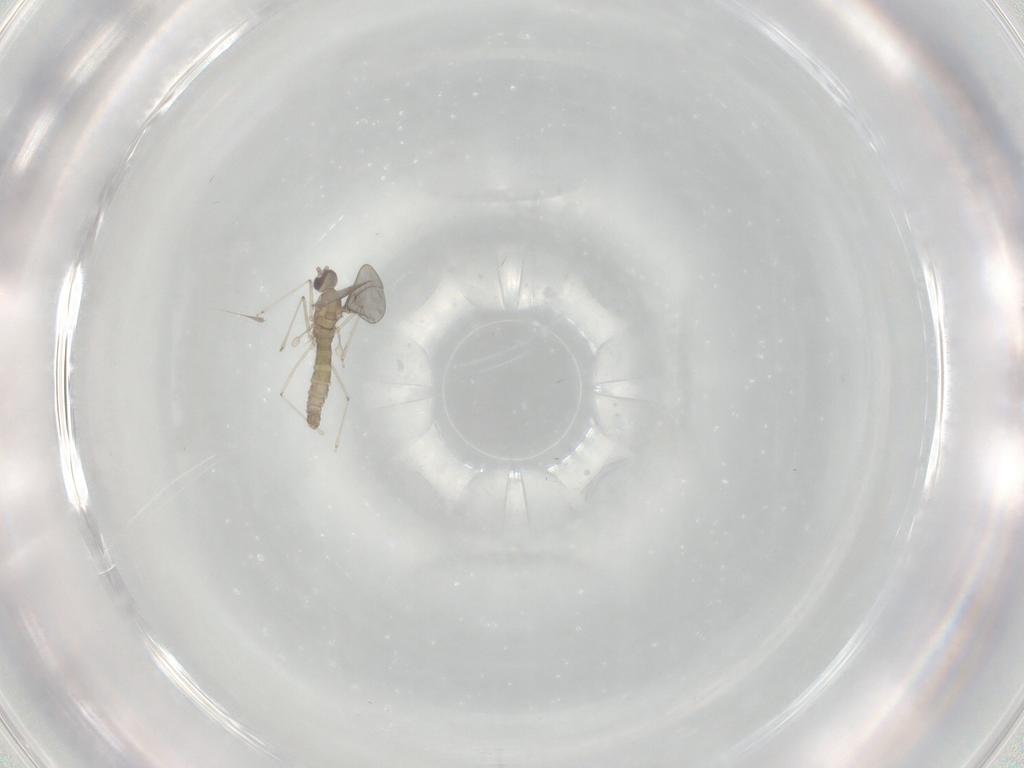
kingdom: Animalia
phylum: Arthropoda
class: Insecta
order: Diptera
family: Cecidomyiidae
